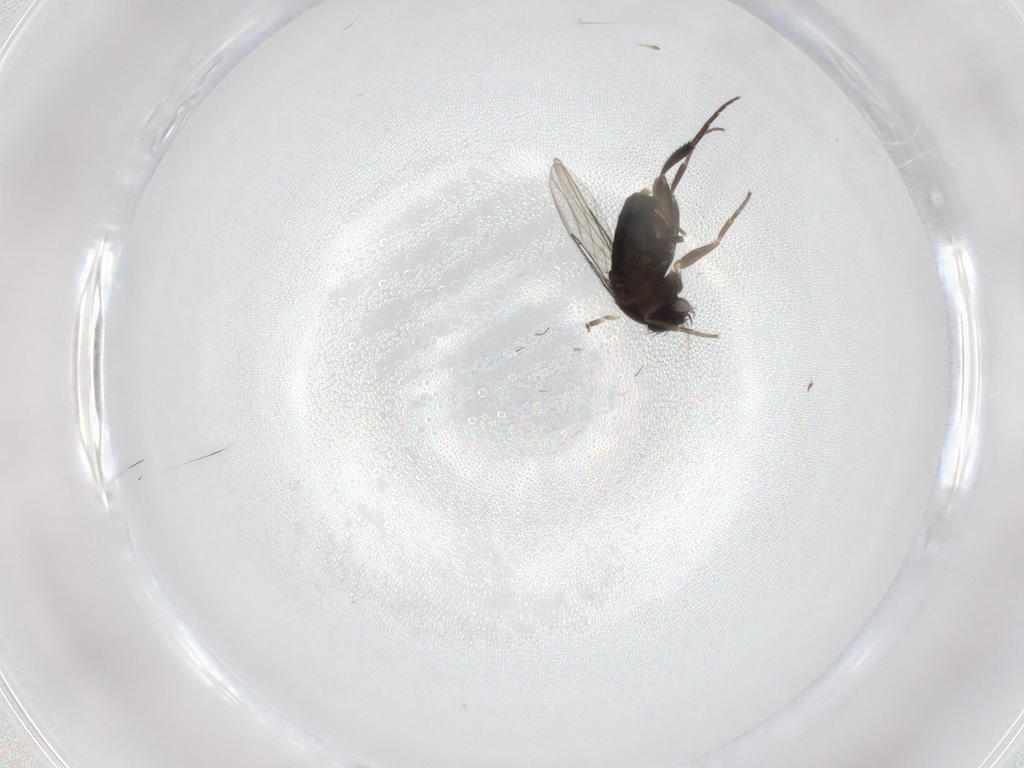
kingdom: Animalia
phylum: Arthropoda
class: Insecta
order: Diptera
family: Phoridae
